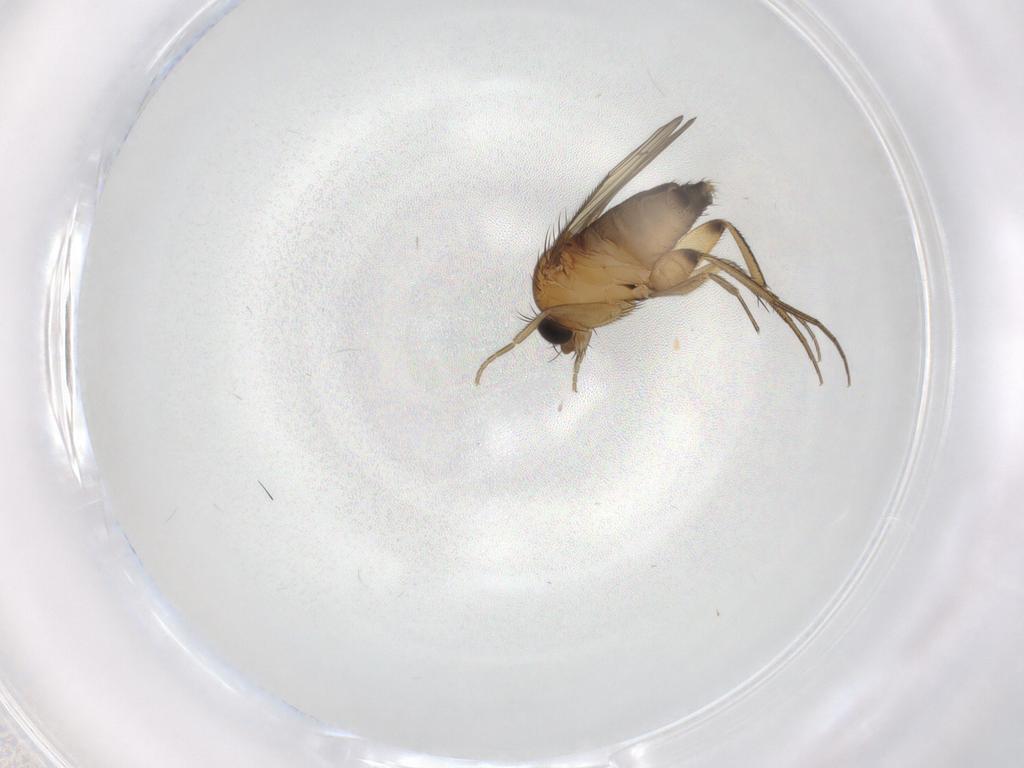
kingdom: Animalia
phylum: Arthropoda
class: Insecta
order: Diptera
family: Phoridae
